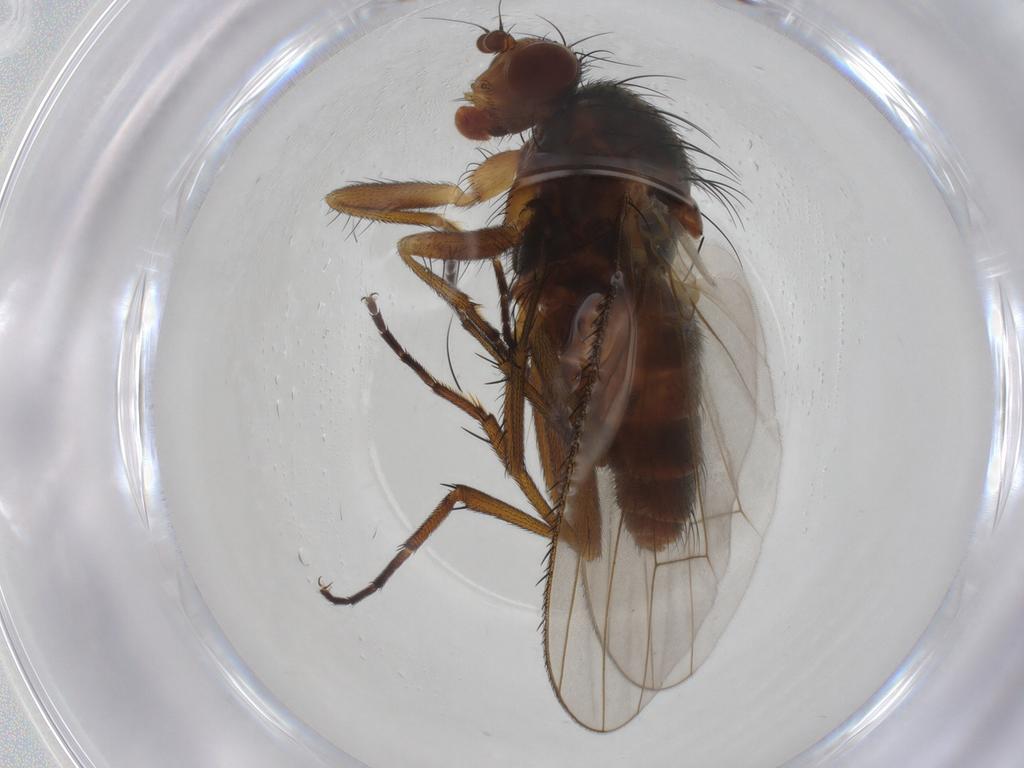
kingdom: Animalia
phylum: Arthropoda
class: Insecta
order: Diptera
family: Heleomyzidae
